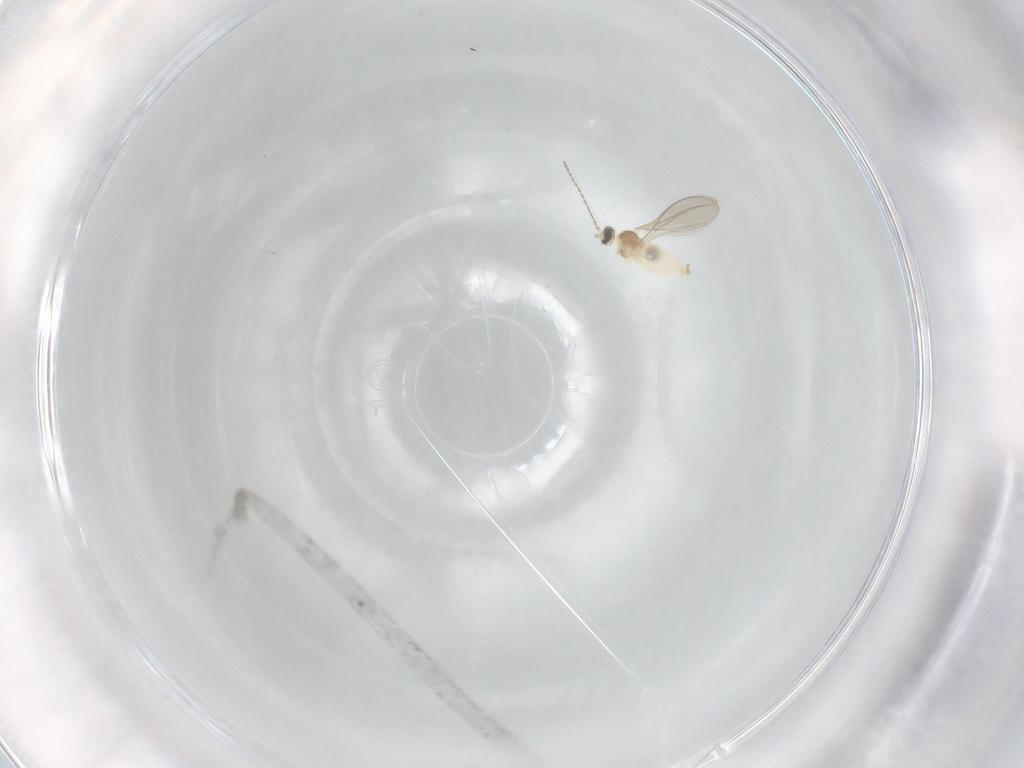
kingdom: Animalia
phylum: Arthropoda
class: Insecta
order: Diptera
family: Cecidomyiidae
